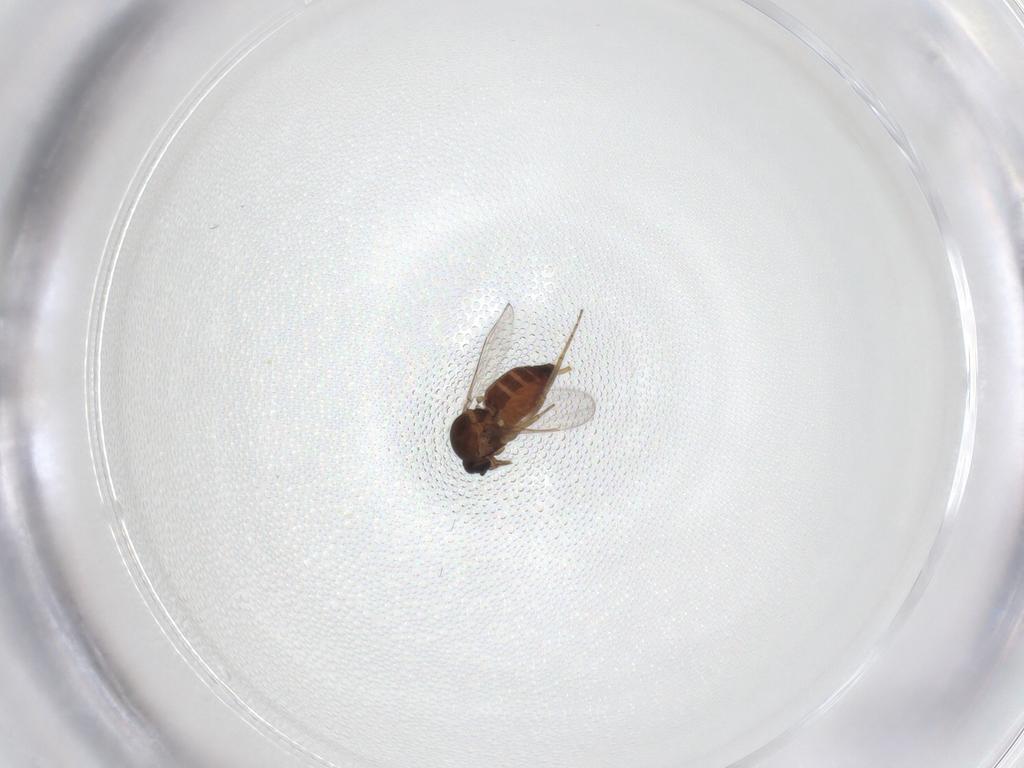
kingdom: Animalia
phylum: Arthropoda
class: Insecta
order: Diptera
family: Sciaridae
